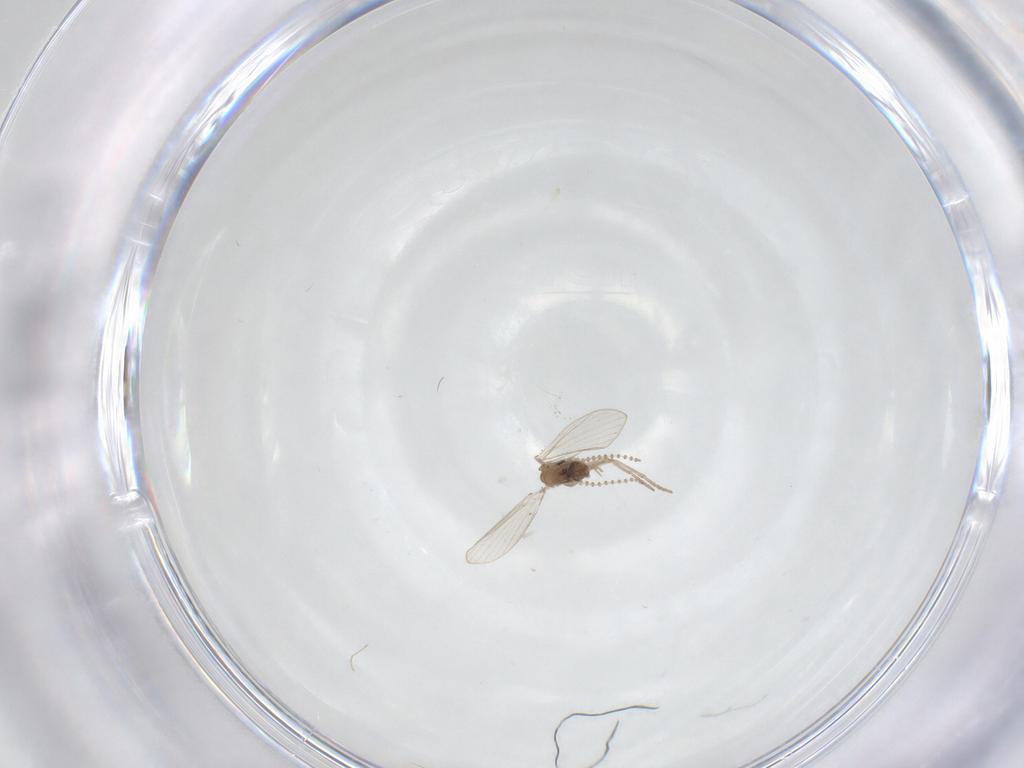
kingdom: Animalia
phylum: Arthropoda
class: Insecta
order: Diptera
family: Psychodidae
